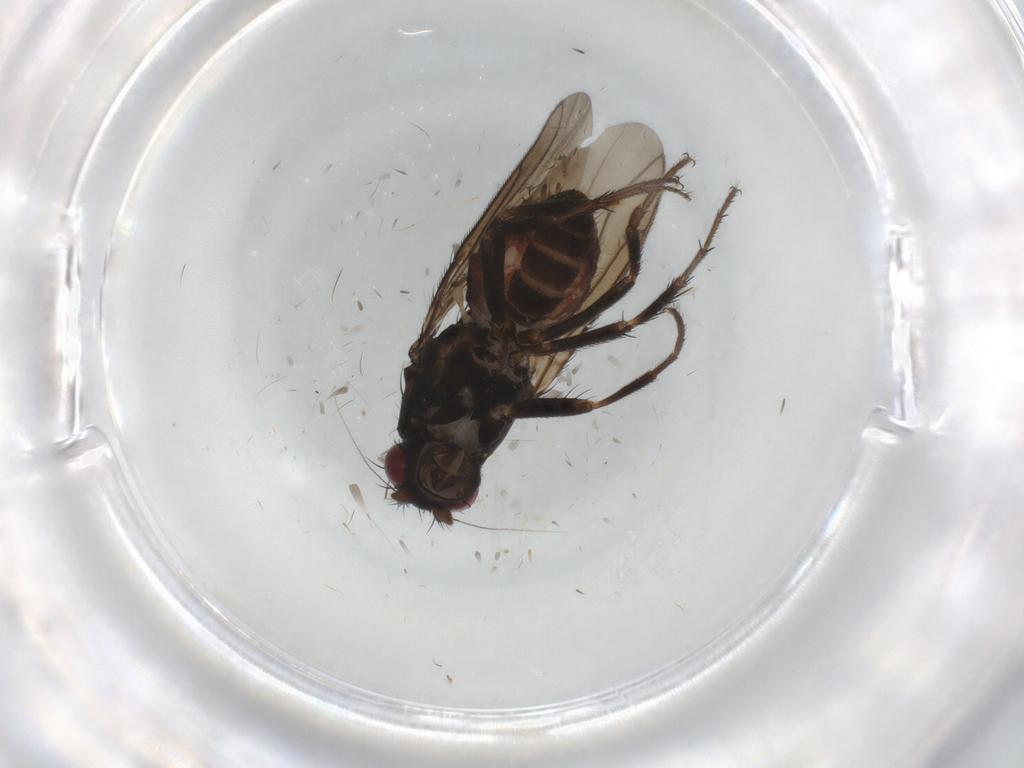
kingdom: Animalia
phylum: Arthropoda
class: Insecta
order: Diptera
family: Sphaeroceridae
